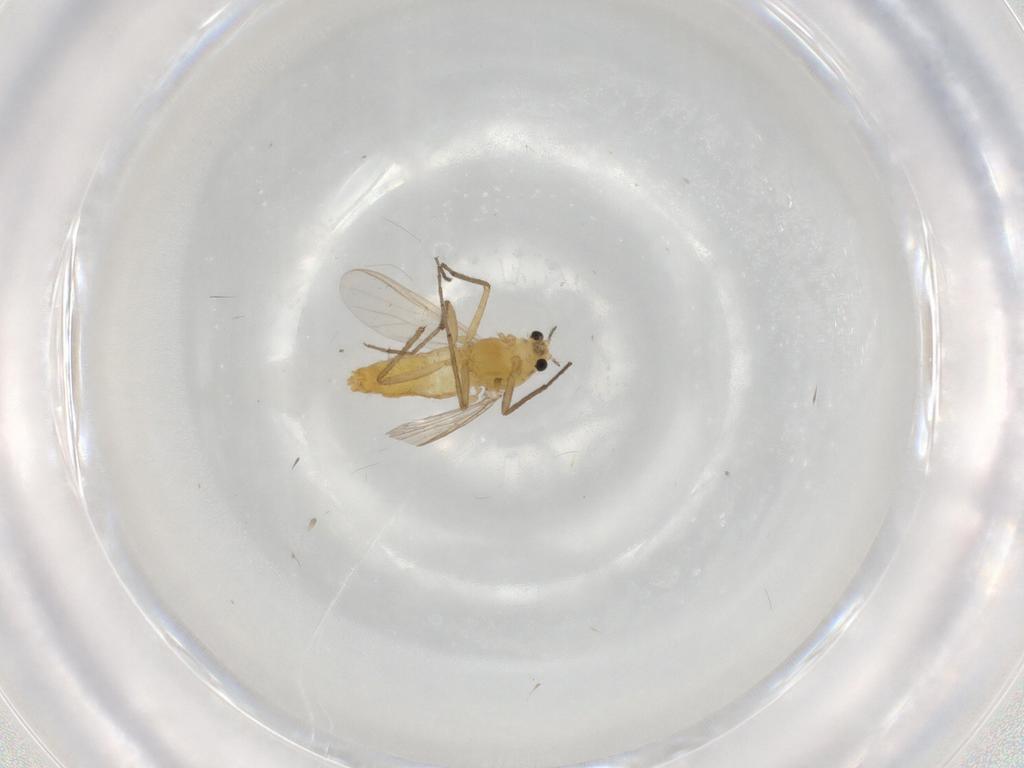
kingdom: Animalia
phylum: Arthropoda
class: Insecta
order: Diptera
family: Chironomidae
